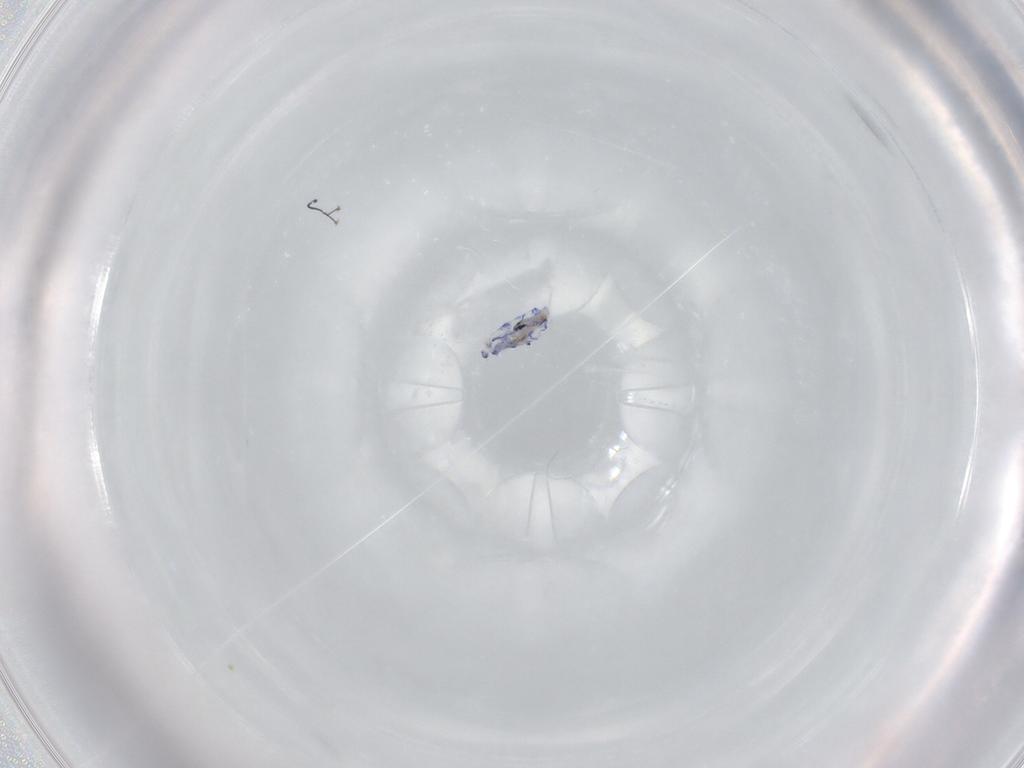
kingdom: Animalia
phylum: Arthropoda
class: Collembola
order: Entomobryomorpha
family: Entomobryidae
